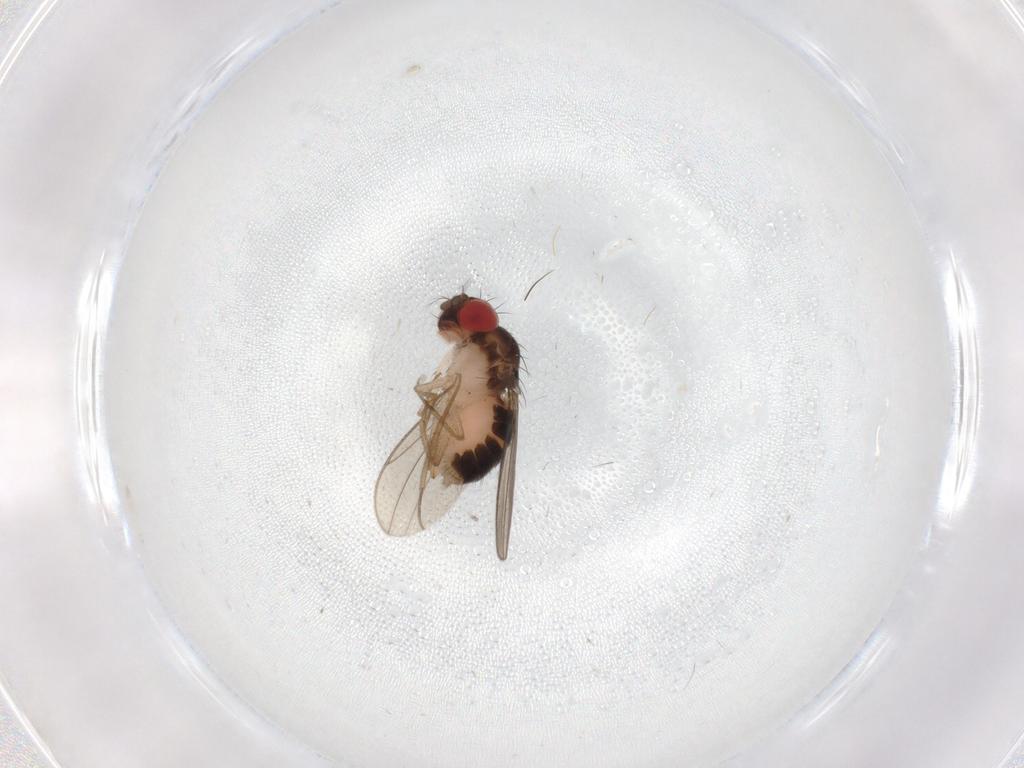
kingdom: Animalia
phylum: Arthropoda
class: Insecta
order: Diptera
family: Drosophilidae
